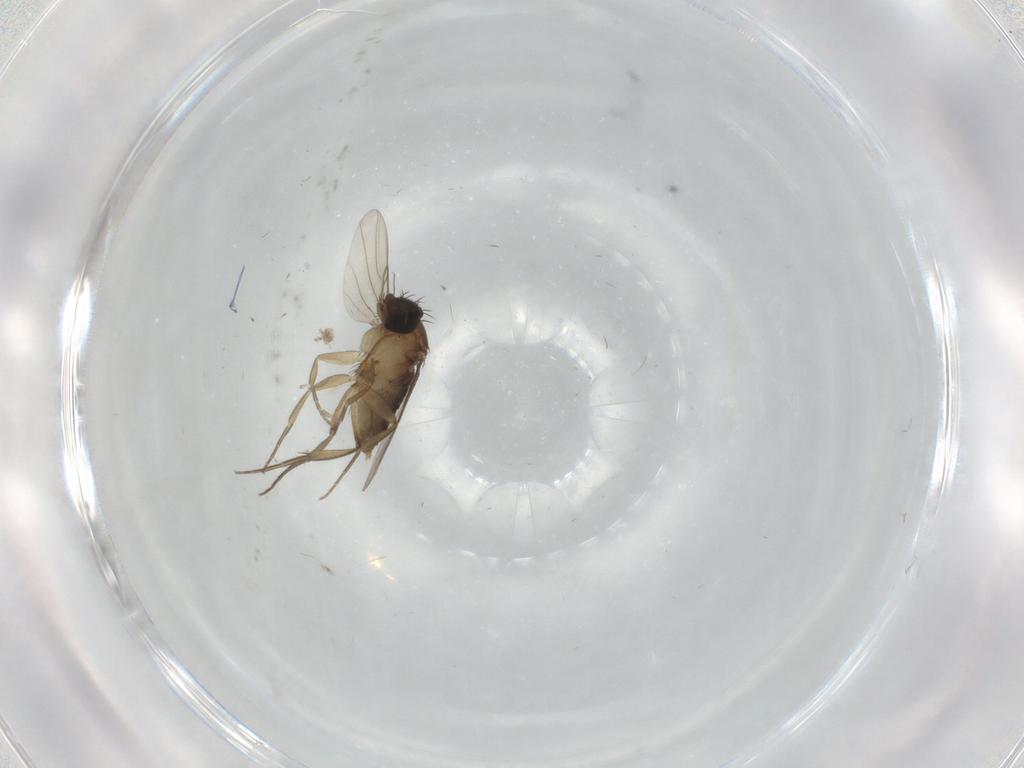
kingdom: Animalia
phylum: Arthropoda
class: Insecta
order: Diptera
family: Phoridae
